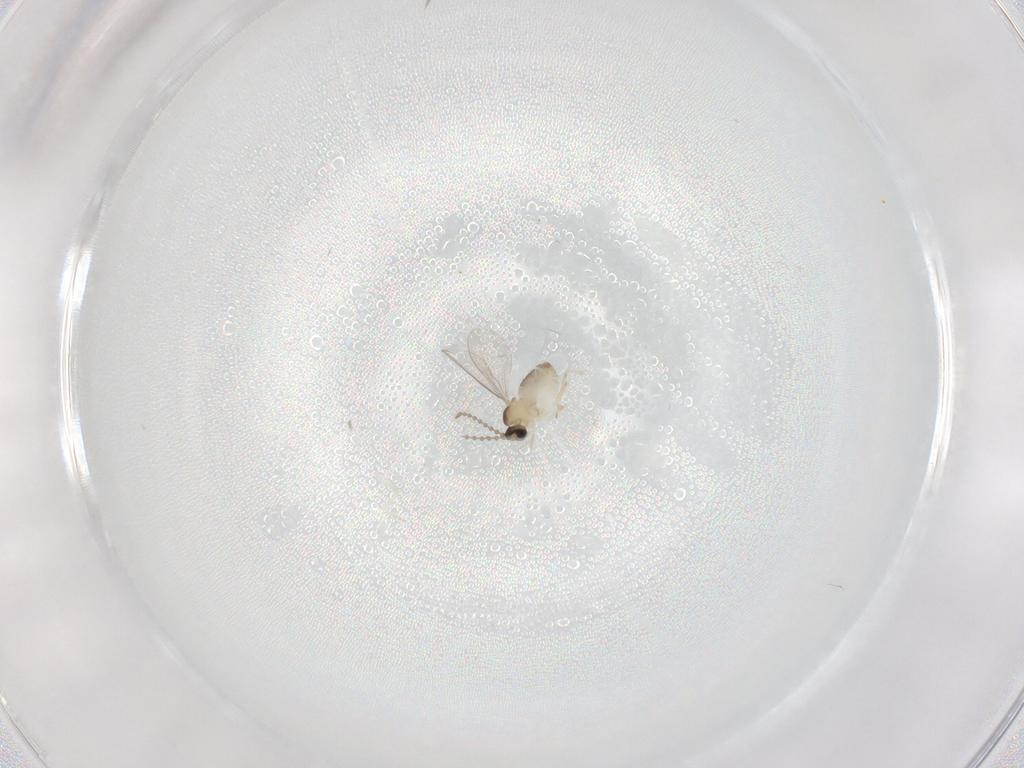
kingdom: Animalia
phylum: Arthropoda
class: Insecta
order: Diptera
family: Cecidomyiidae
